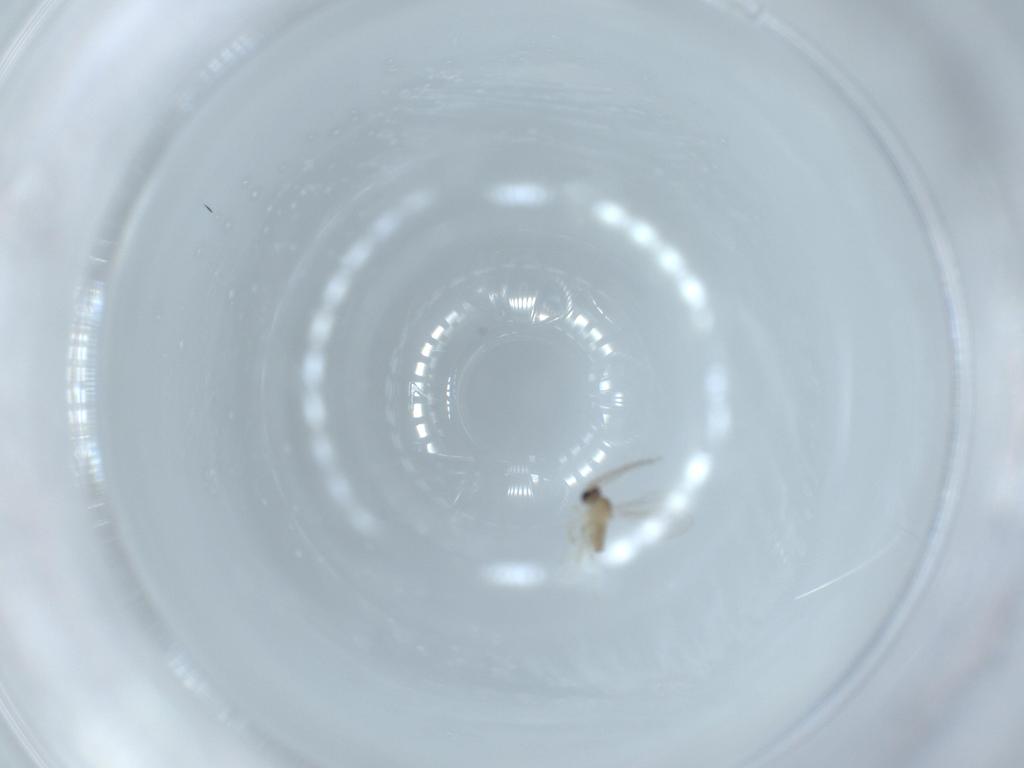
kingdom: Animalia
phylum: Arthropoda
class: Insecta
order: Diptera
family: Cecidomyiidae
